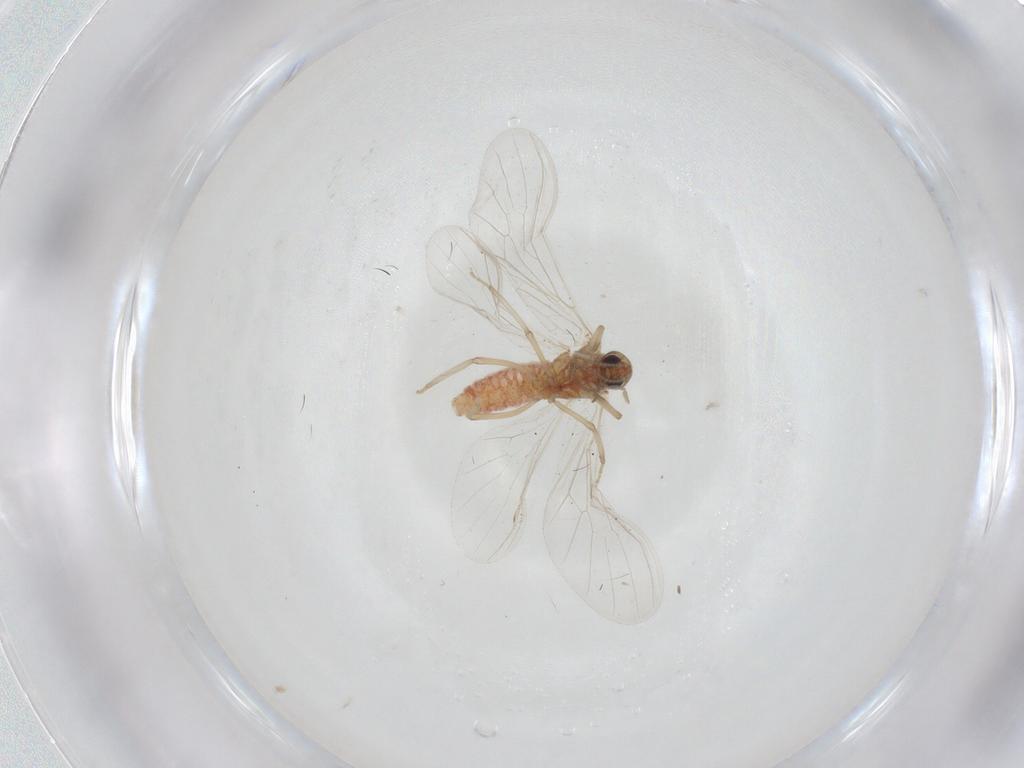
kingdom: Animalia
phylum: Arthropoda
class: Insecta
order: Neuroptera
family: Coniopterygidae
